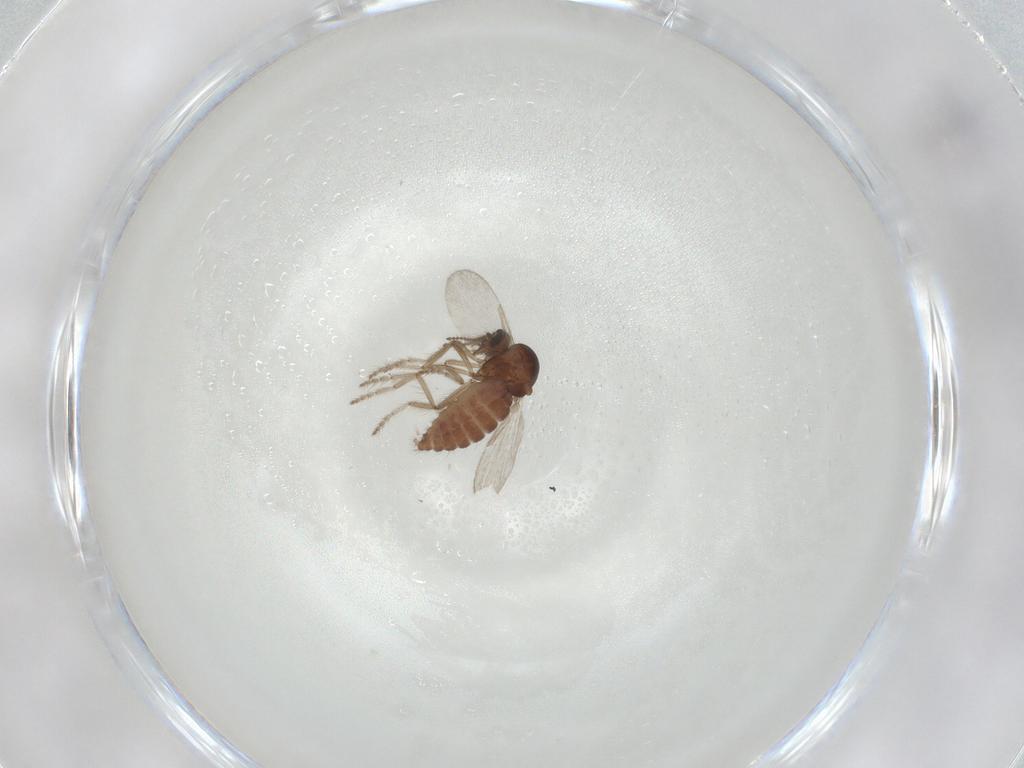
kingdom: Animalia
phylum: Arthropoda
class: Insecta
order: Diptera
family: Ceratopogonidae
